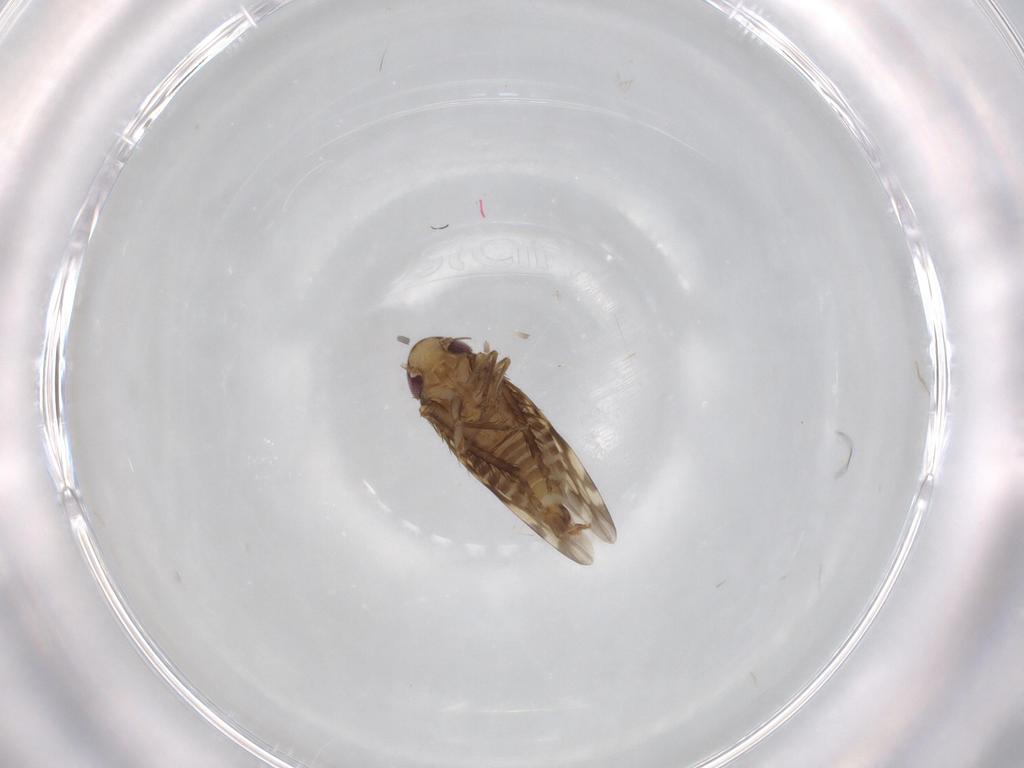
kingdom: Animalia
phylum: Arthropoda
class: Insecta
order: Hemiptera
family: Cicadellidae
